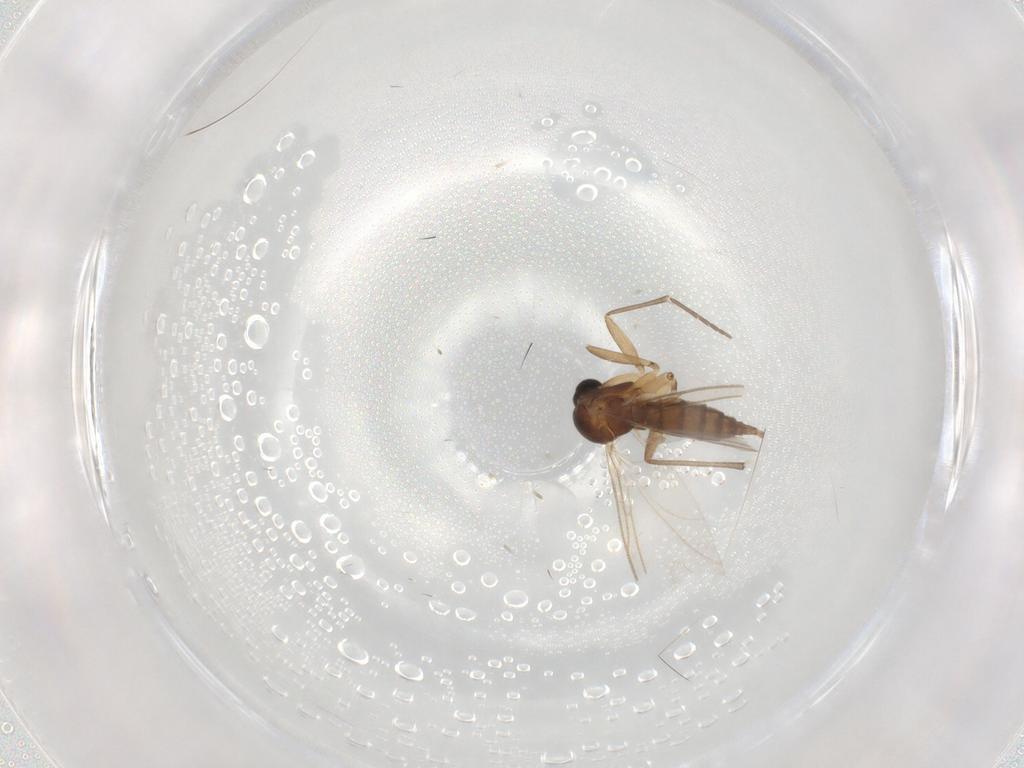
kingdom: Animalia
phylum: Arthropoda
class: Insecta
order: Diptera
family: Sciaridae
